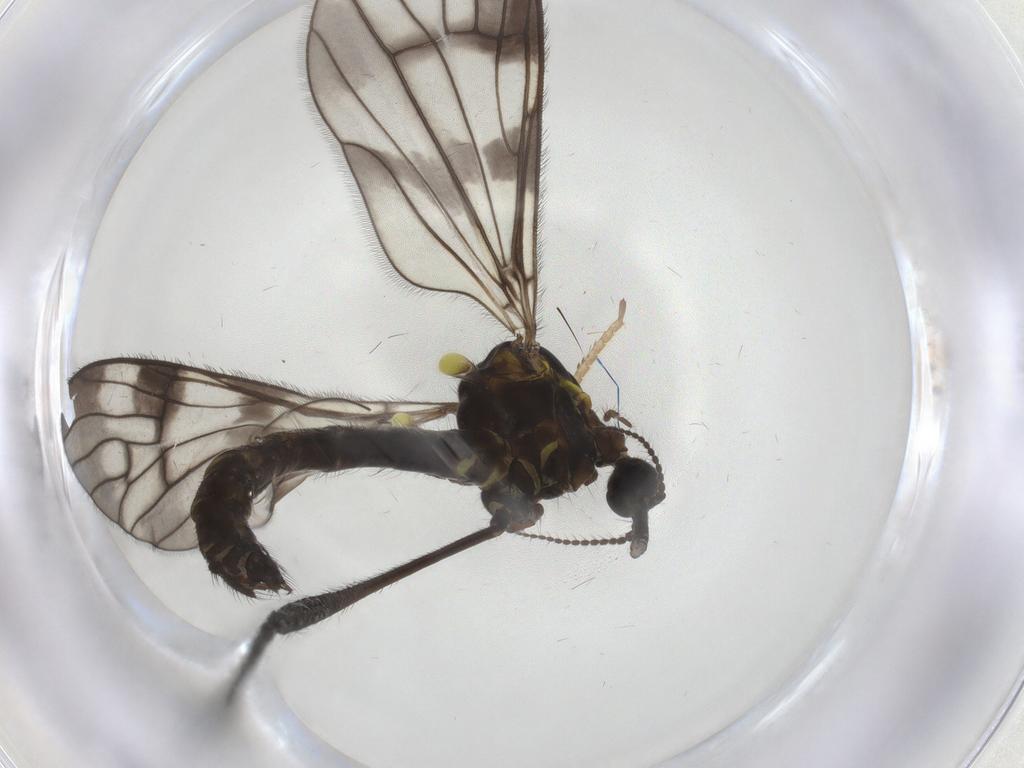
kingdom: Animalia
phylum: Arthropoda
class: Insecta
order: Diptera
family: Limoniidae
